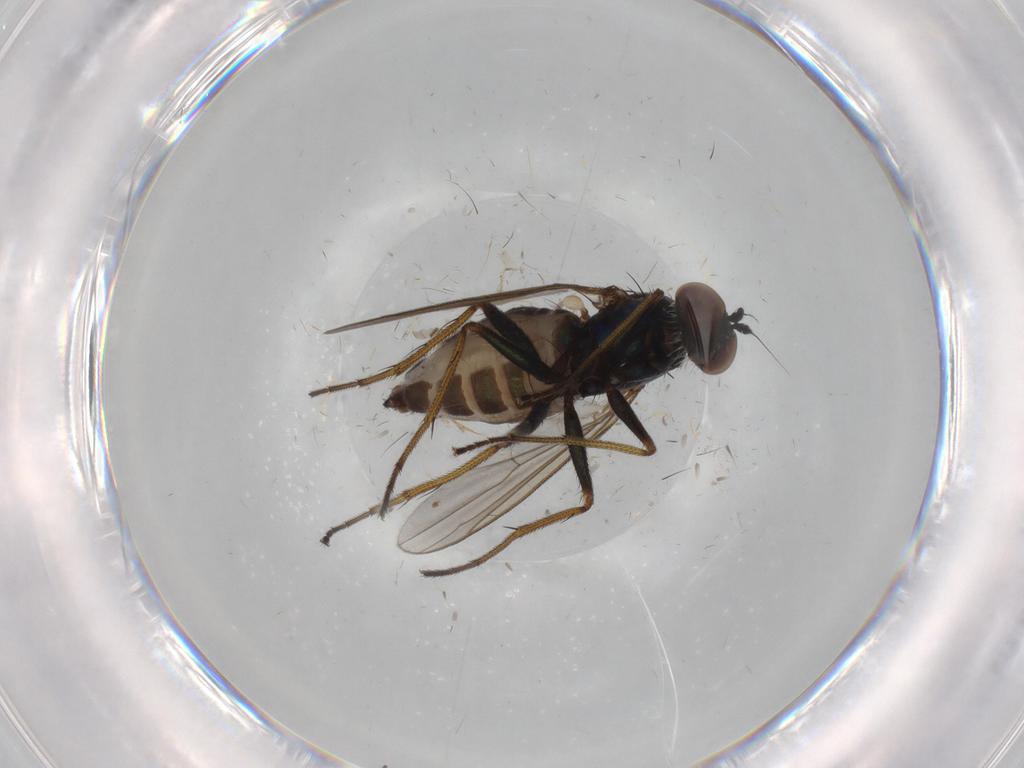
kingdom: Animalia
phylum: Arthropoda
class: Insecta
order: Diptera
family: Dolichopodidae
